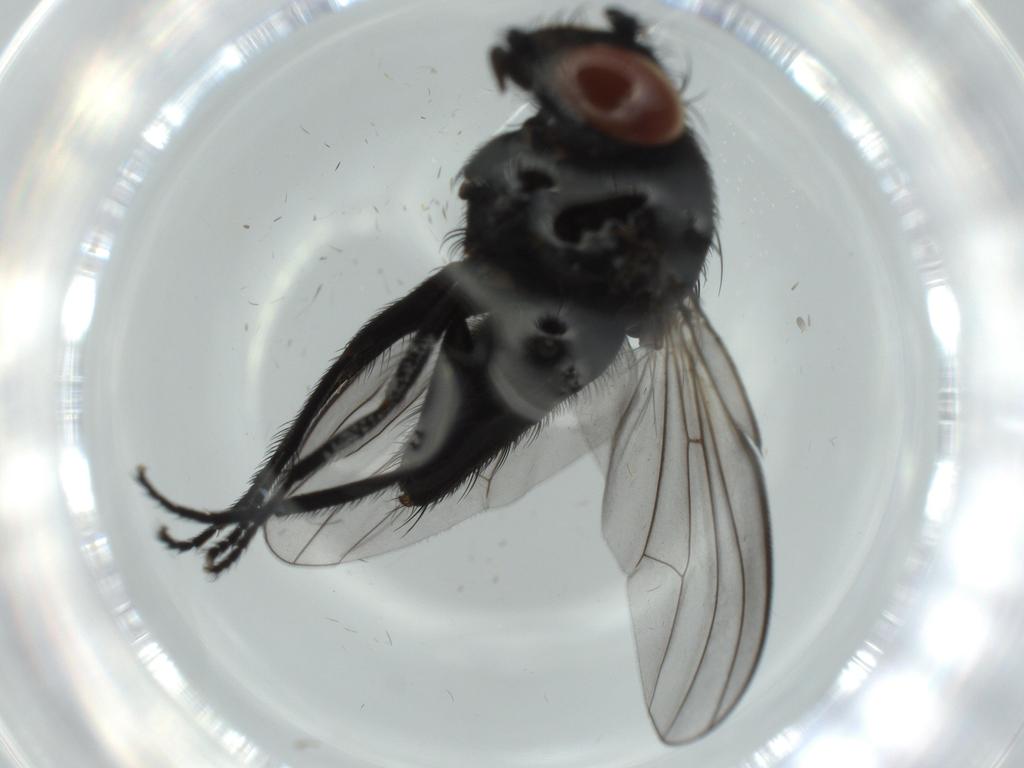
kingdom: Animalia
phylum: Arthropoda
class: Insecta
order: Diptera
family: Milichiidae
